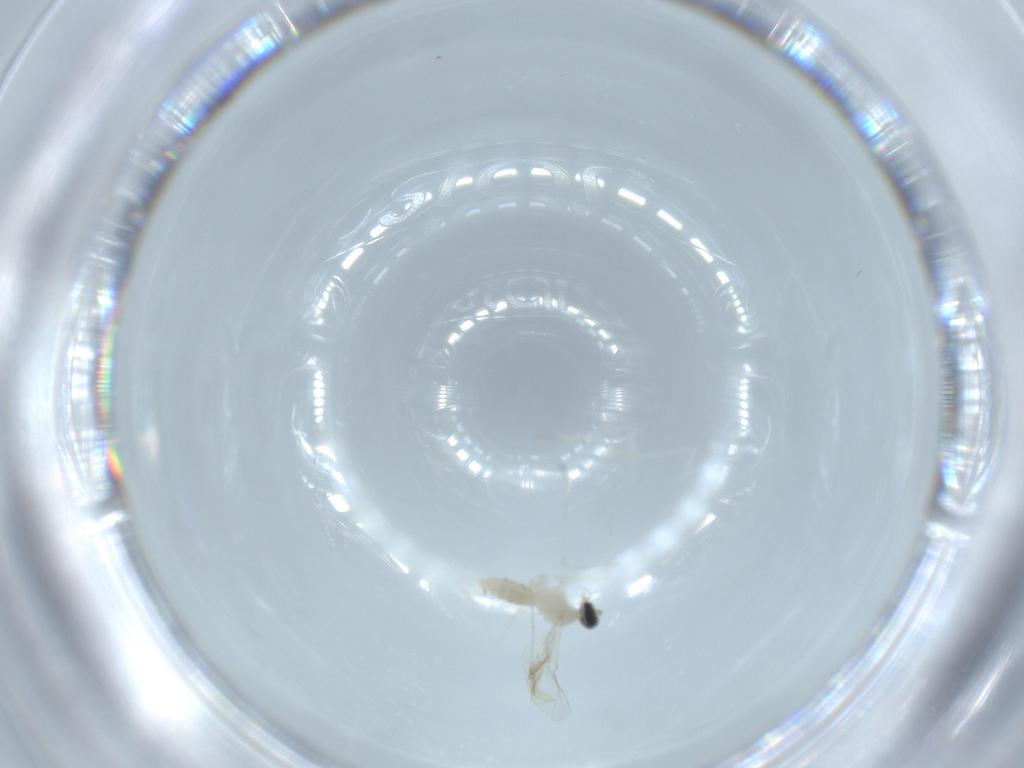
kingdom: Animalia
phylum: Arthropoda
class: Insecta
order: Diptera
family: Cecidomyiidae
